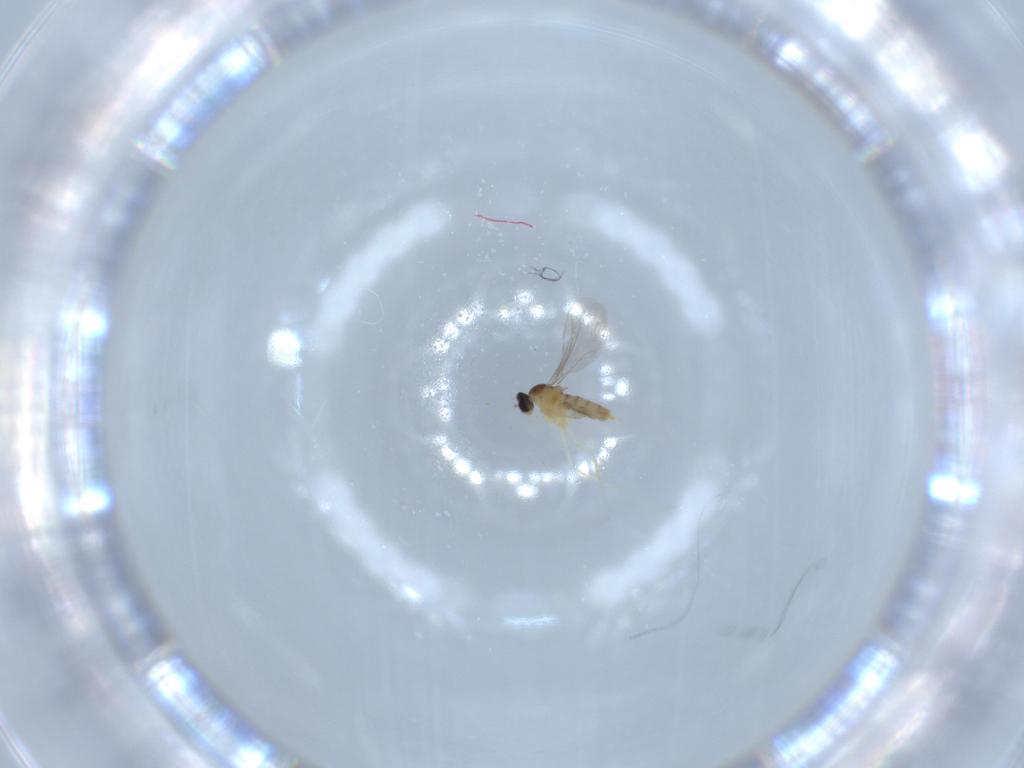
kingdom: Animalia
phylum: Arthropoda
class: Insecta
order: Diptera
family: Cecidomyiidae
